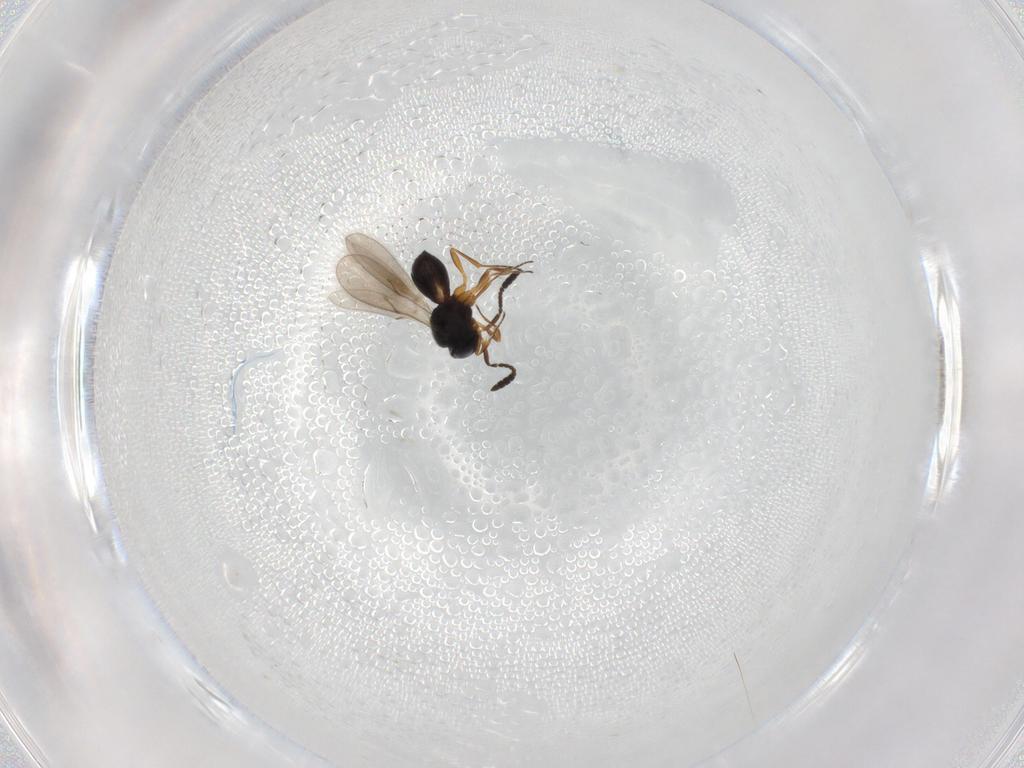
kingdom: Animalia
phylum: Arthropoda
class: Insecta
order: Hymenoptera
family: Scelionidae
